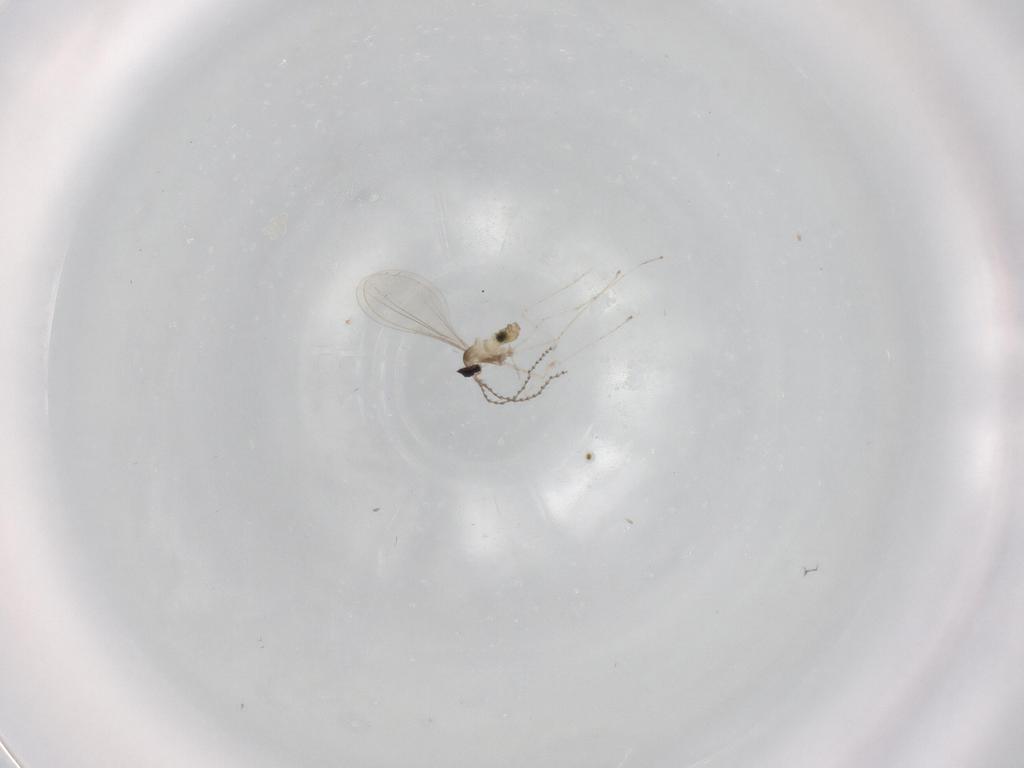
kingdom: Animalia
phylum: Arthropoda
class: Insecta
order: Diptera
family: Cecidomyiidae
